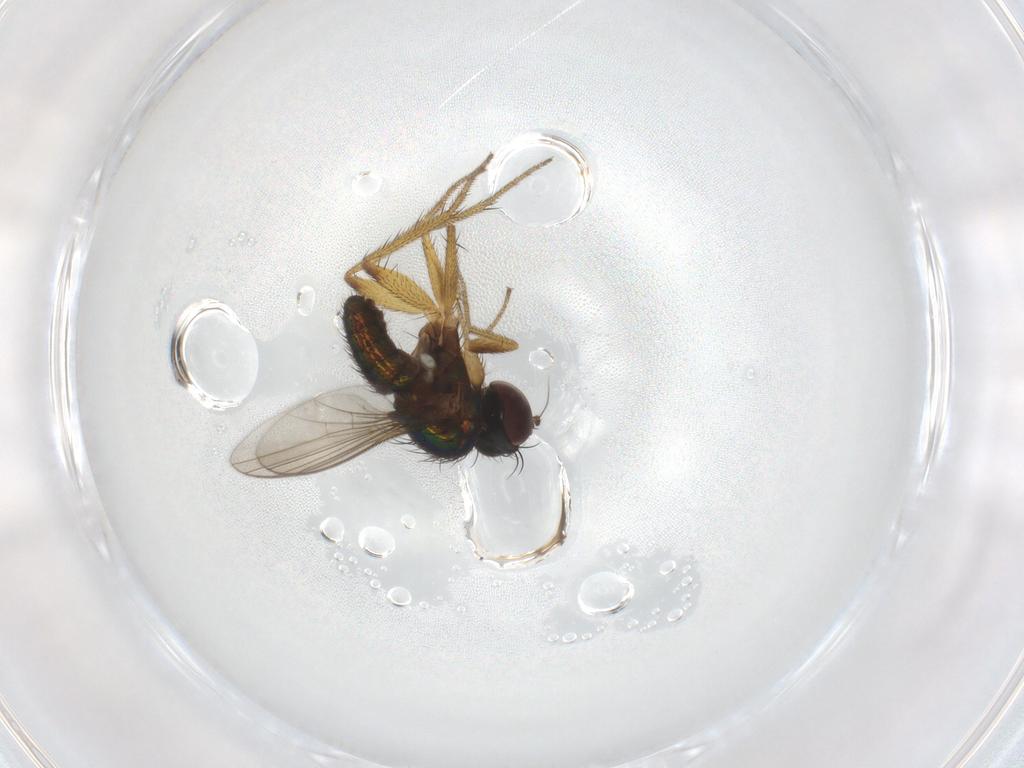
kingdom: Animalia
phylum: Arthropoda
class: Insecta
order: Diptera
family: Dolichopodidae
